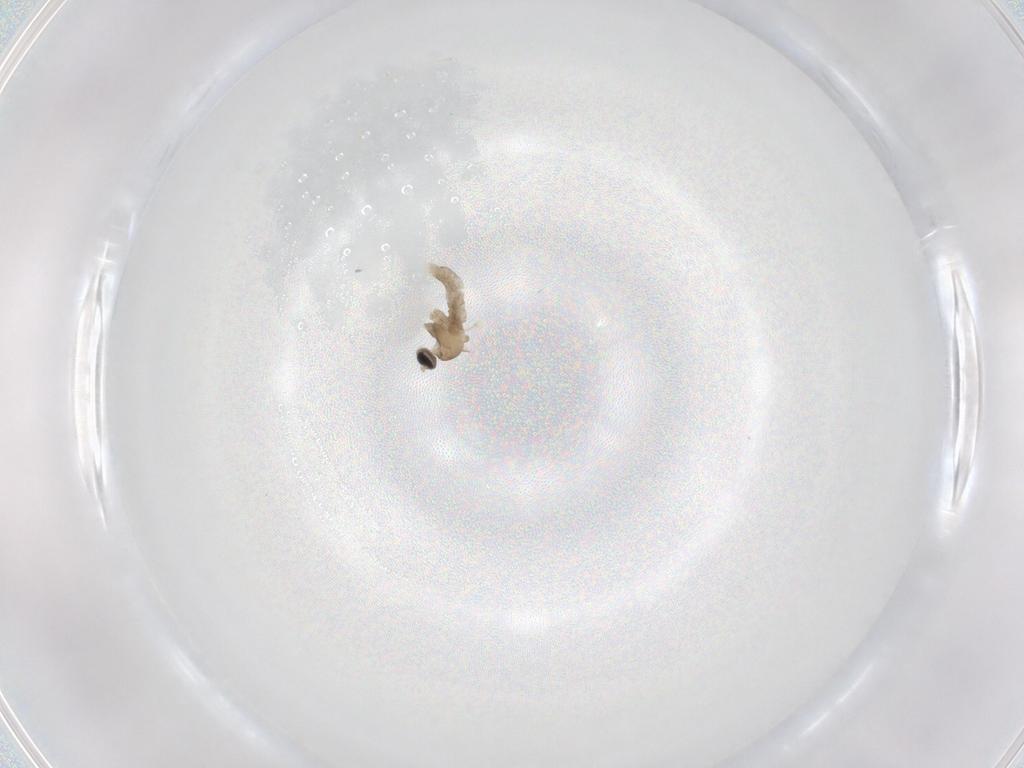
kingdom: Animalia
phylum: Arthropoda
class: Insecta
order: Diptera
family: Cecidomyiidae
